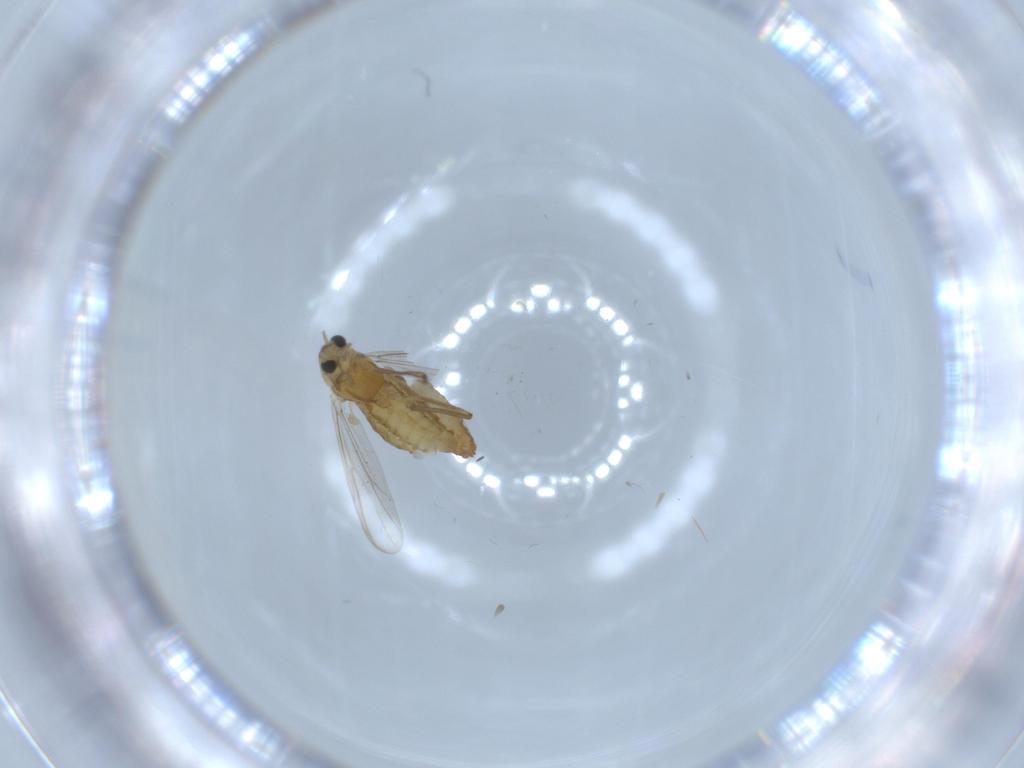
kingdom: Animalia
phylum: Arthropoda
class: Insecta
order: Diptera
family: Chironomidae
